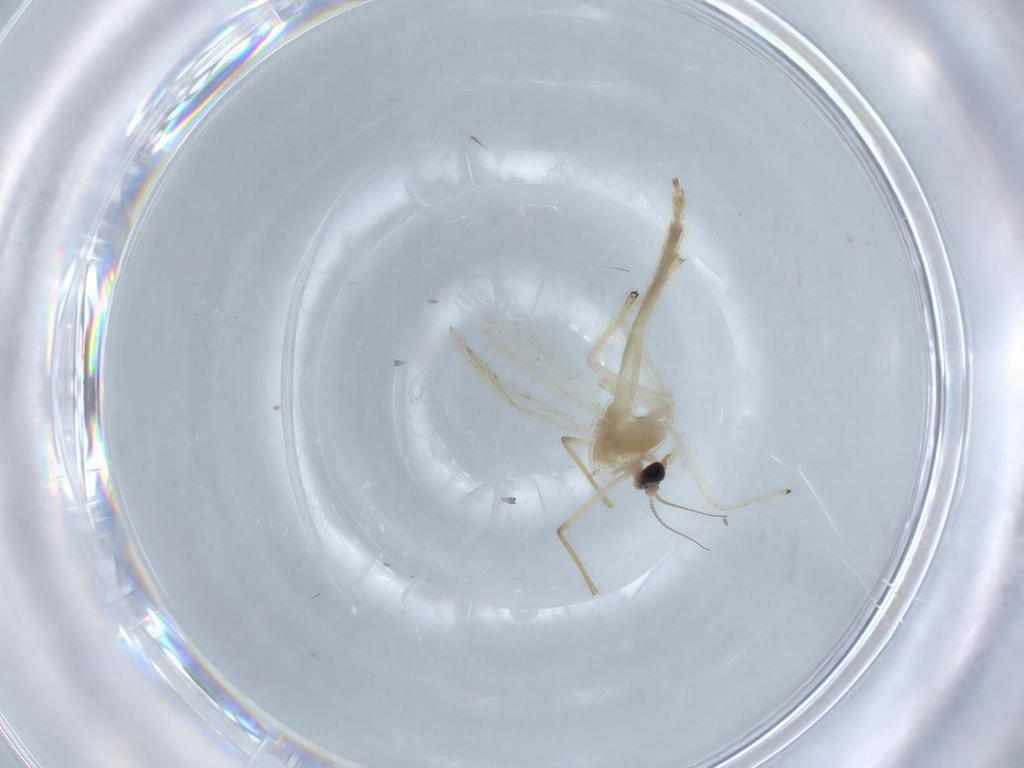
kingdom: Animalia
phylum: Arthropoda
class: Insecta
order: Diptera
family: Chironomidae
